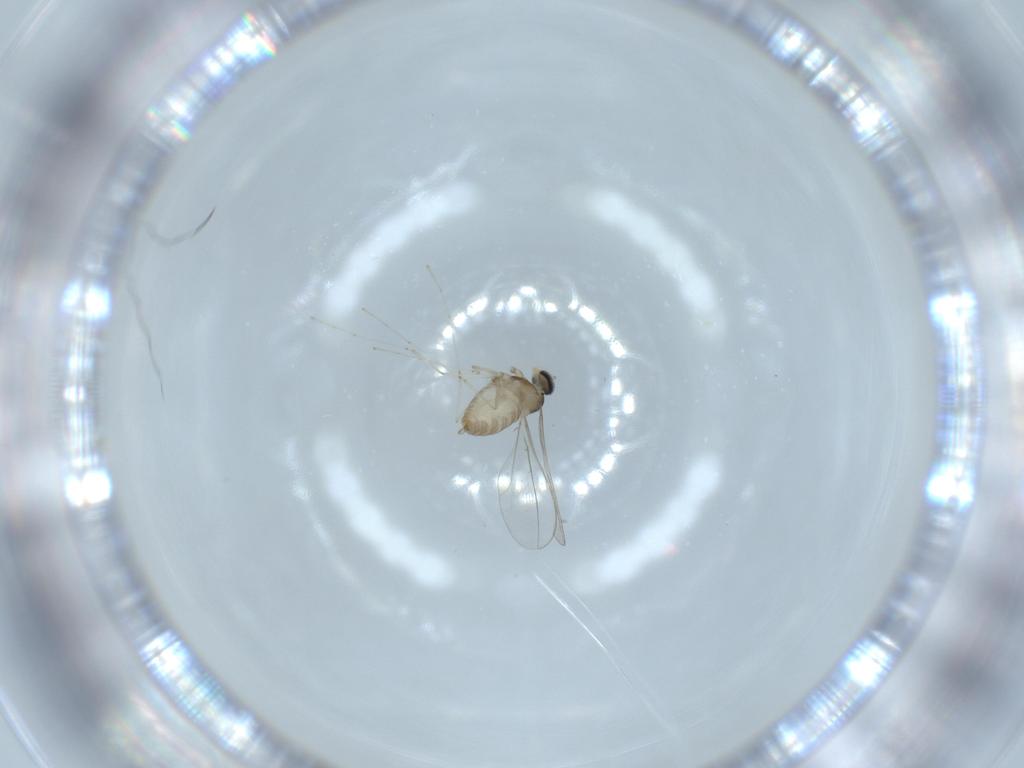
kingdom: Animalia
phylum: Arthropoda
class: Insecta
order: Diptera
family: Cecidomyiidae
